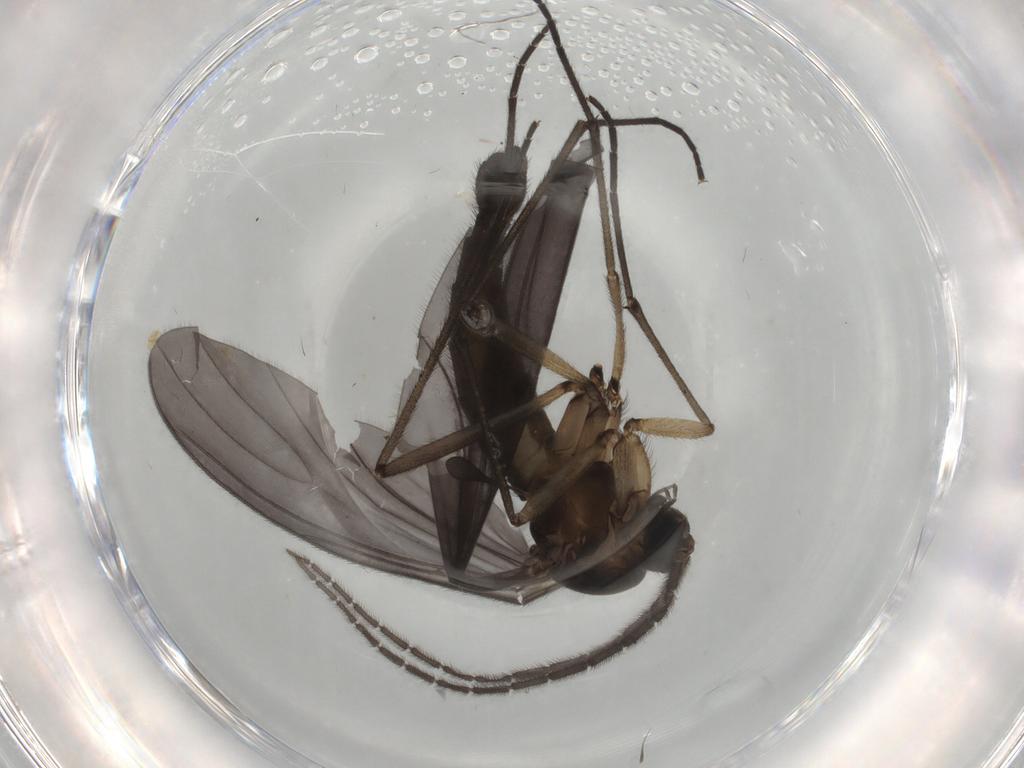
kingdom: Animalia
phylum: Arthropoda
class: Insecta
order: Diptera
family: Sciaridae
